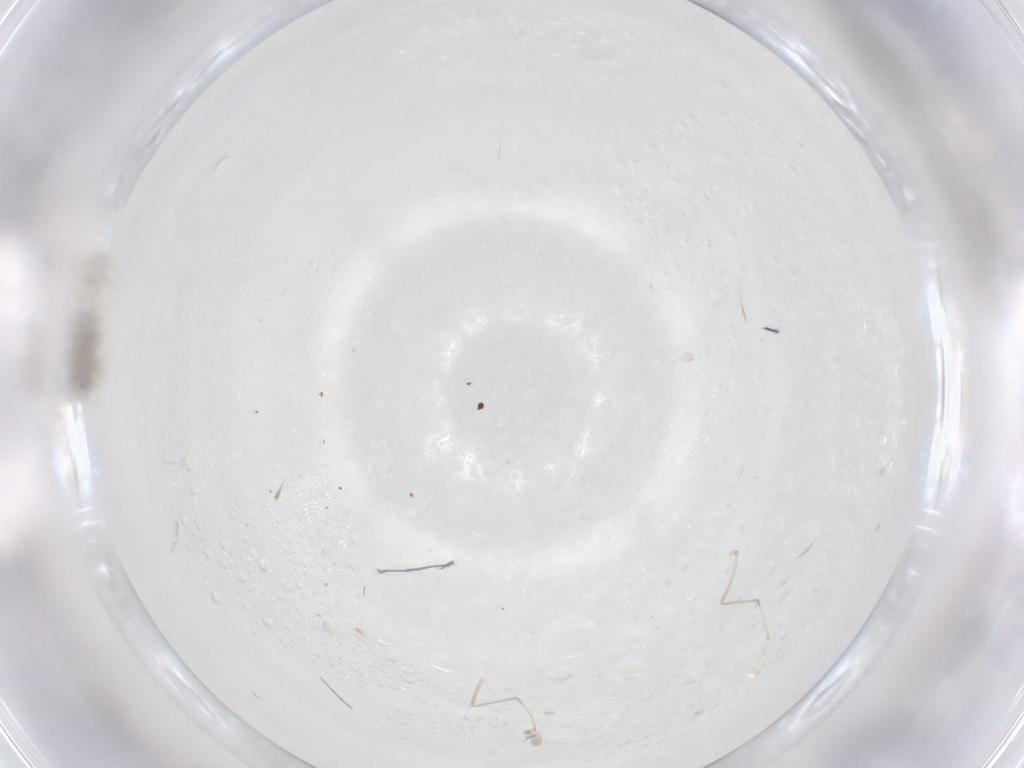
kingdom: Animalia
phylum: Arthropoda
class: Insecta
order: Diptera
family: Cecidomyiidae
